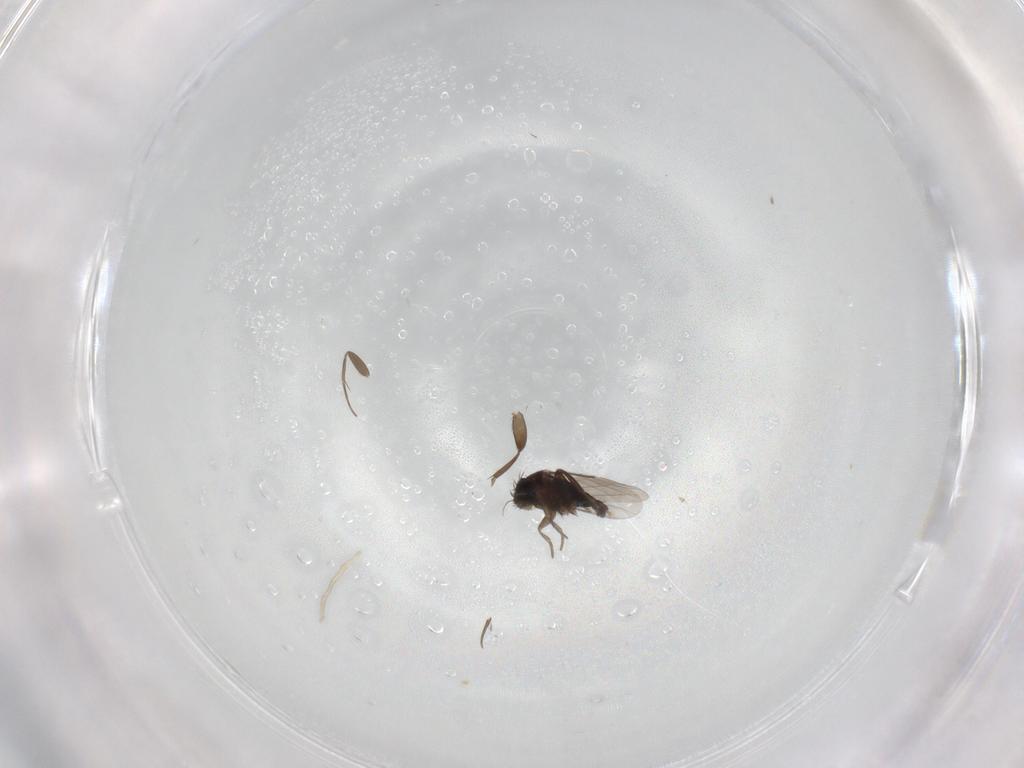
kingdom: Animalia
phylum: Arthropoda
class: Insecta
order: Diptera
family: Phoridae
